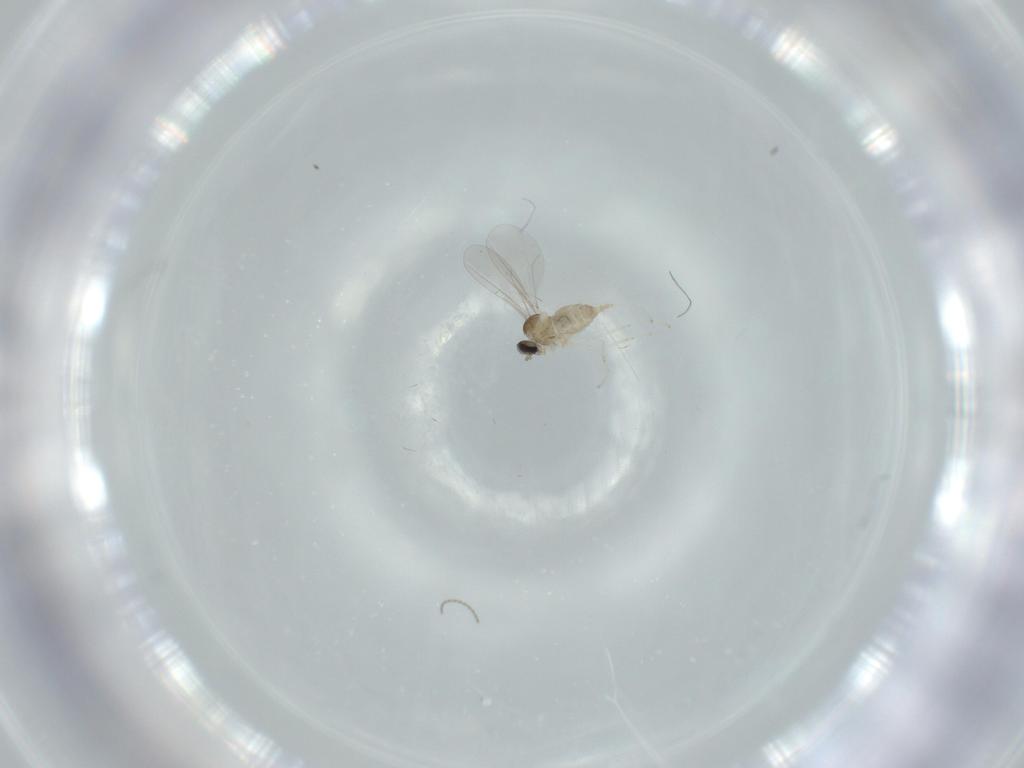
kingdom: Animalia
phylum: Arthropoda
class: Insecta
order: Diptera
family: Cecidomyiidae
